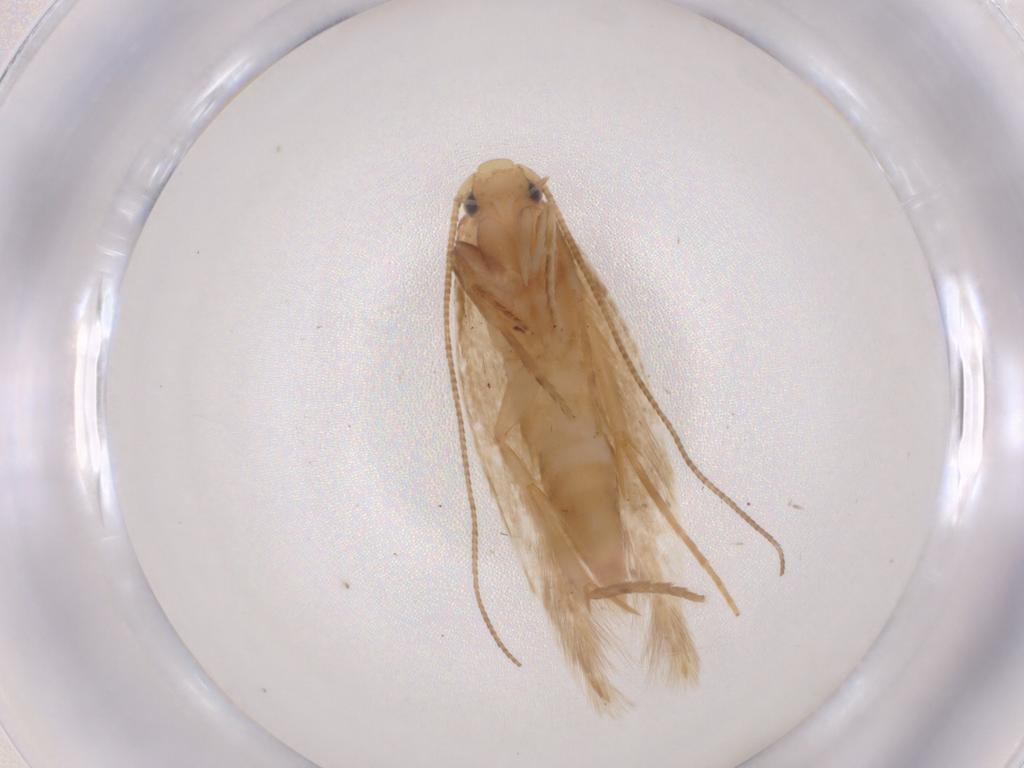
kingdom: Animalia
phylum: Arthropoda
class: Insecta
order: Lepidoptera
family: Tineidae
